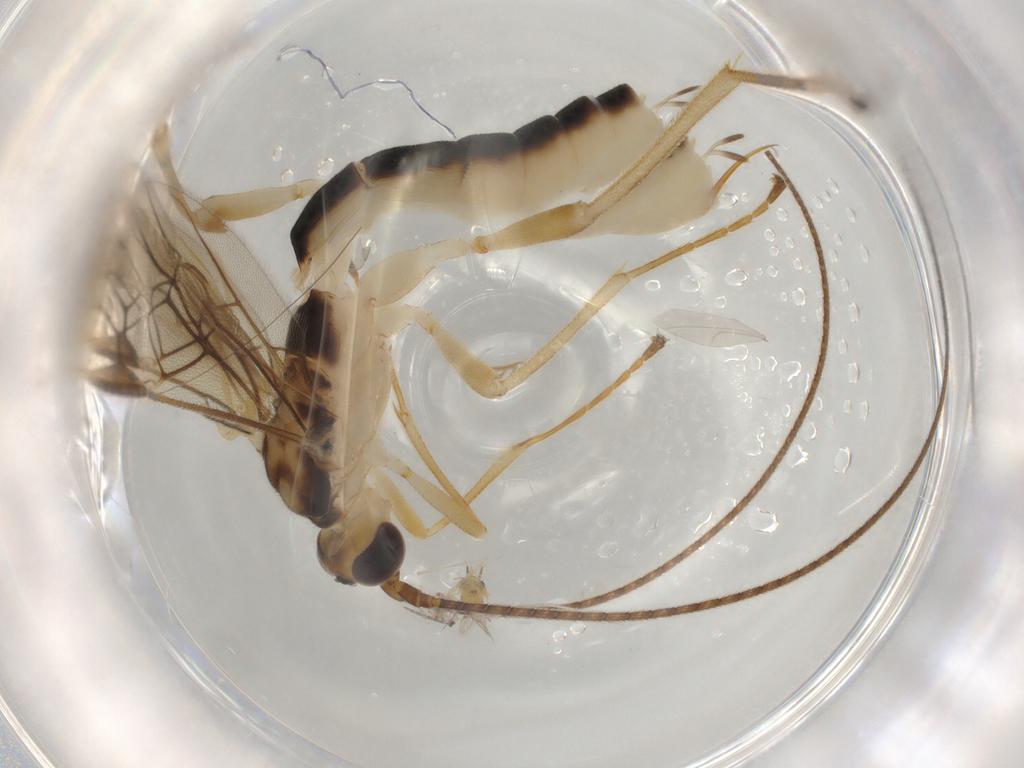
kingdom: Animalia
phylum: Arthropoda
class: Insecta
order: Hymenoptera
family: Braconidae
